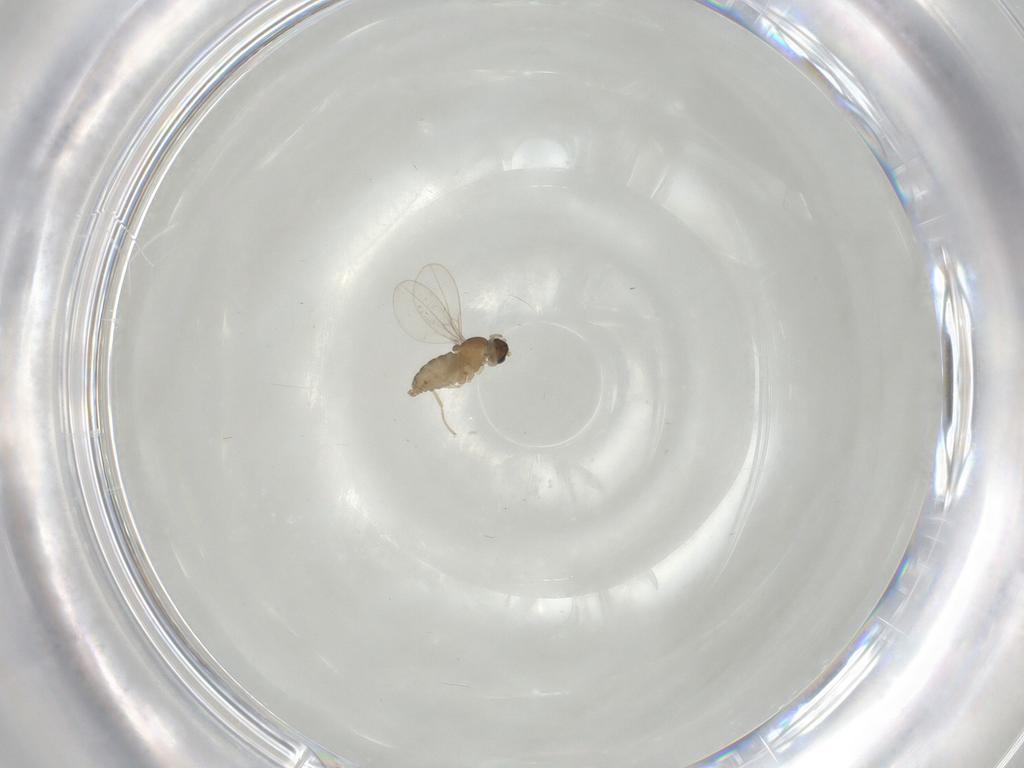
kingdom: Animalia
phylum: Arthropoda
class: Insecta
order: Diptera
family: Cecidomyiidae
